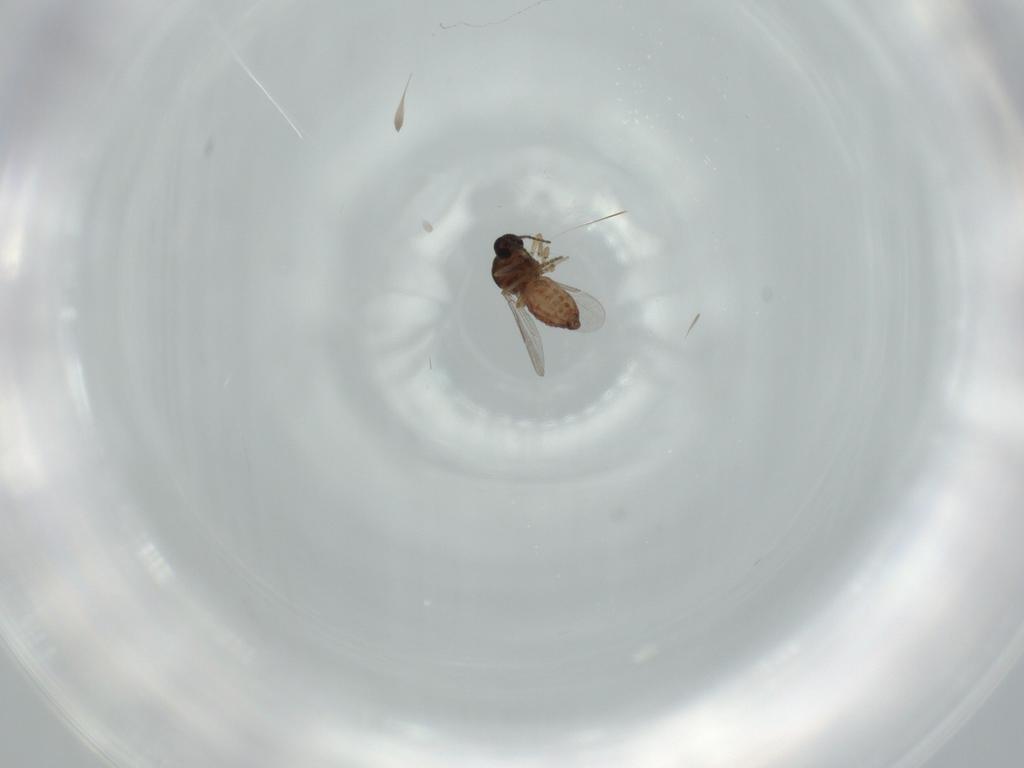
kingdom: Animalia
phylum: Arthropoda
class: Insecta
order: Diptera
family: Ceratopogonidae
